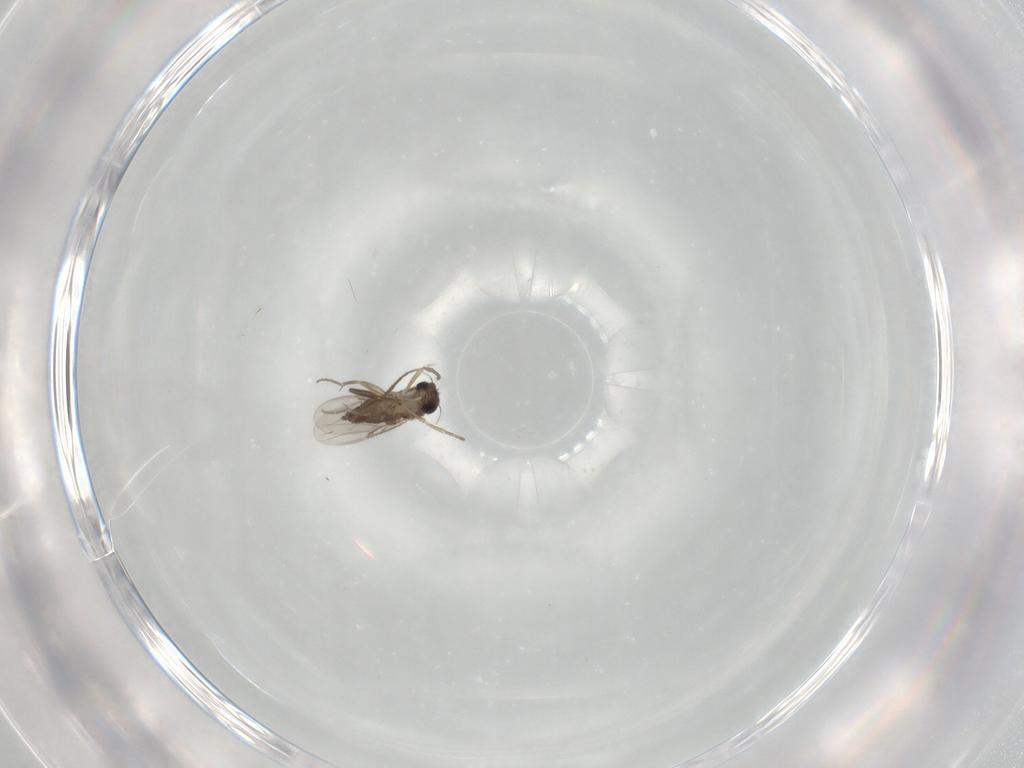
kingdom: Animalia
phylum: Arthropoda
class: Insecta
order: Diptera
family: Phoridae
